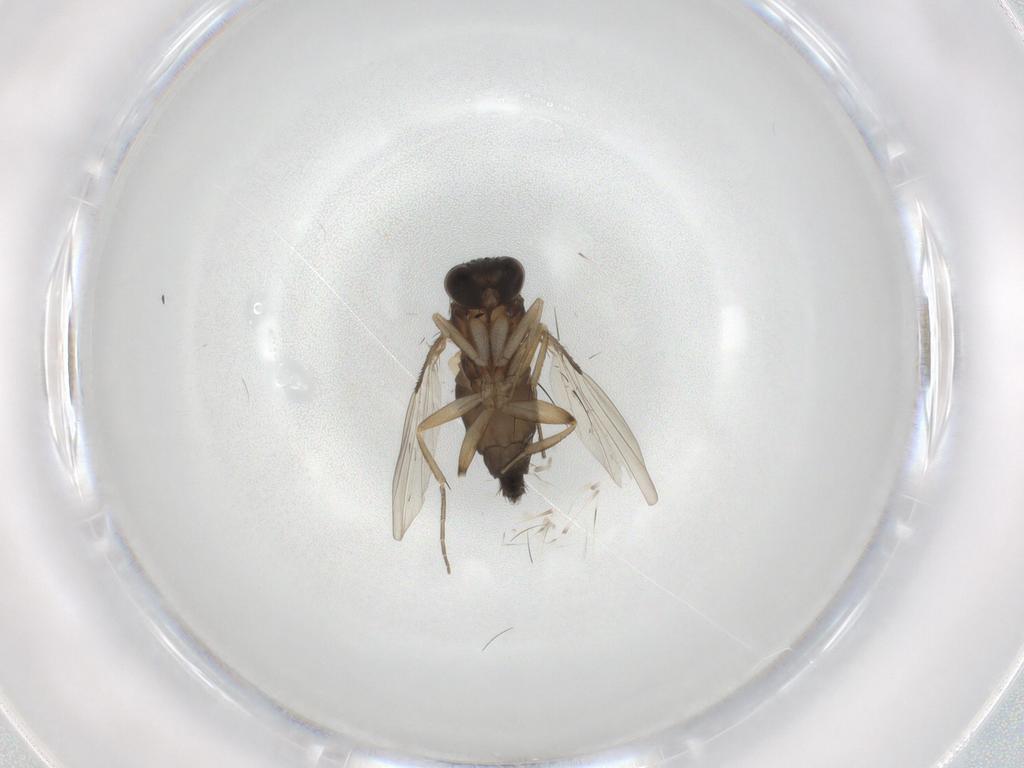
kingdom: Animalia
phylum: Arthropoda
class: Insecta
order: Diptera
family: Phoridae
